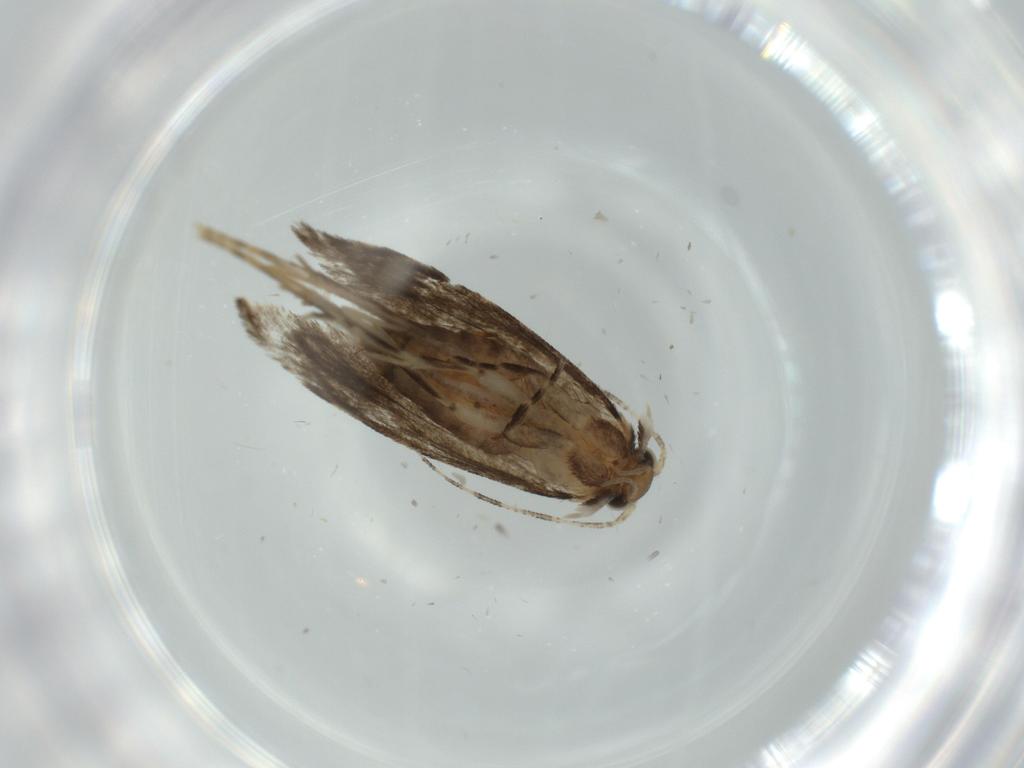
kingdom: Animalia
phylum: Arthropoda
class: Insecta
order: Lepidoptera
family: Tineidae
